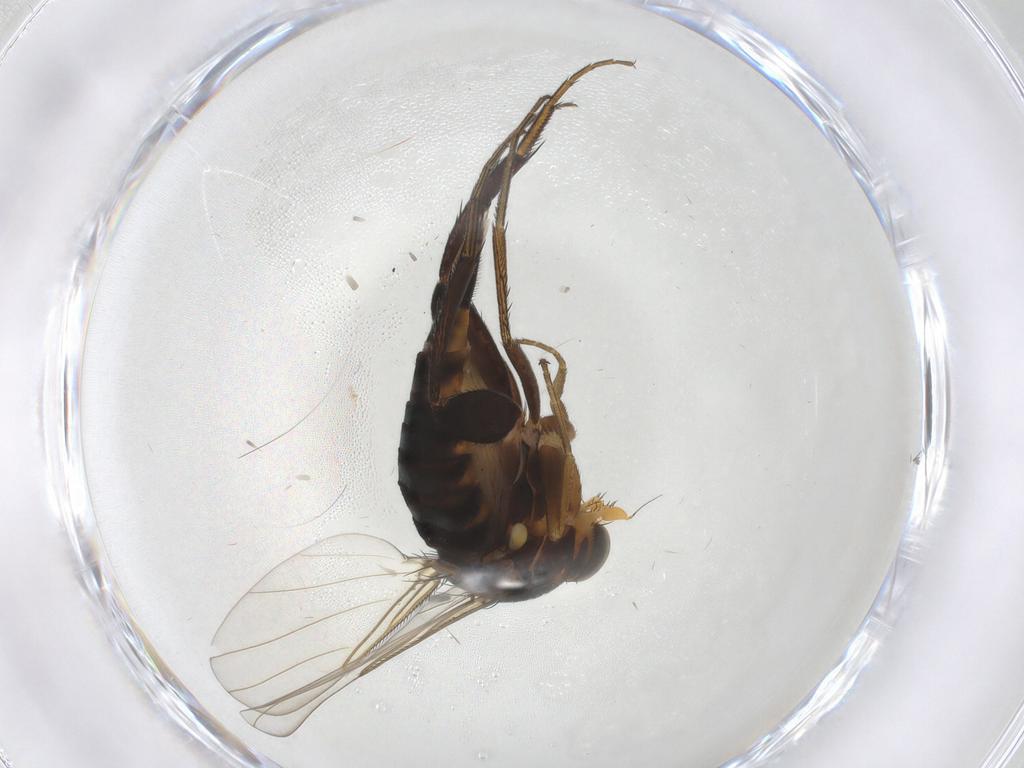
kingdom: Animalia
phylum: Arthropoda
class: Insecta
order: Diptera
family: Phoridae
